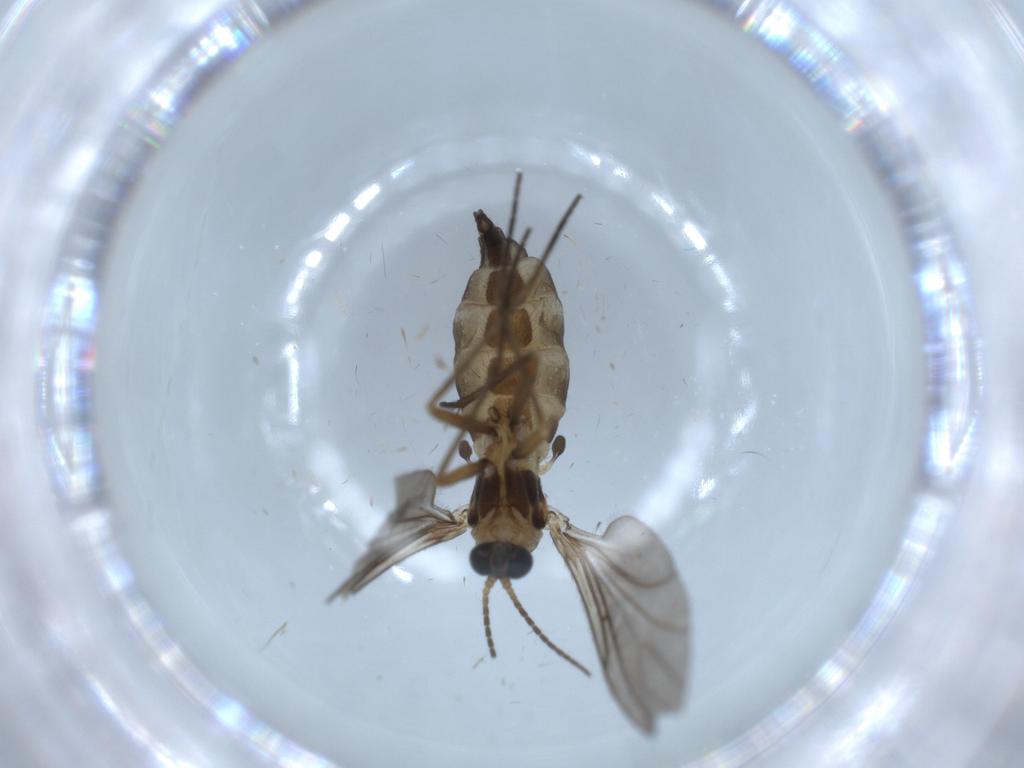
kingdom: Animalia
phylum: Arthropoda
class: Insecta
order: Diptera
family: Sciaridae
